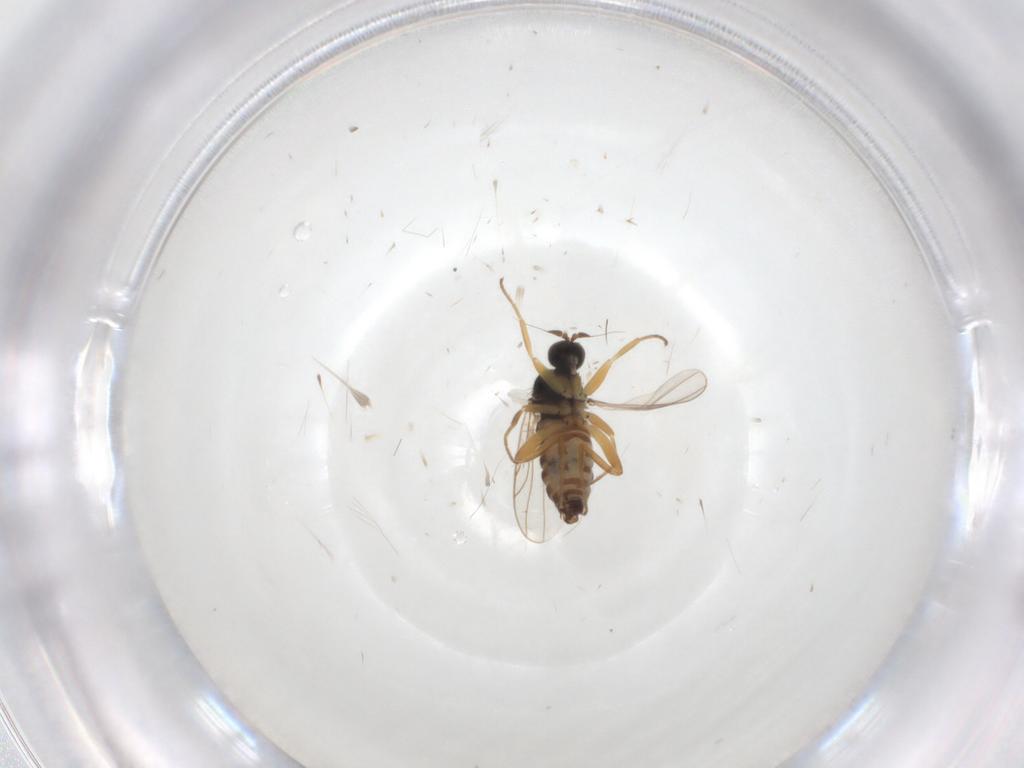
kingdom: Animalia
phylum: Arthropoda
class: Insecta
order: Diptera
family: Hybotidae
